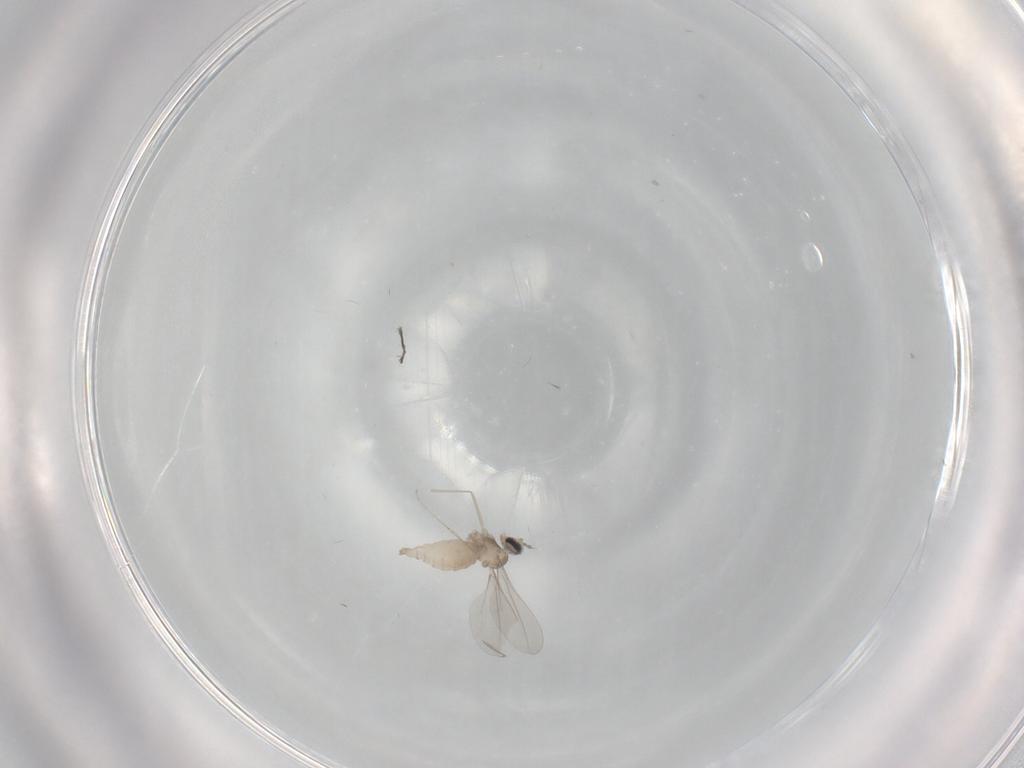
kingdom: Animalia
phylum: Arthropoda
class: Insecta
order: Diptera
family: Cecidomyiidae
